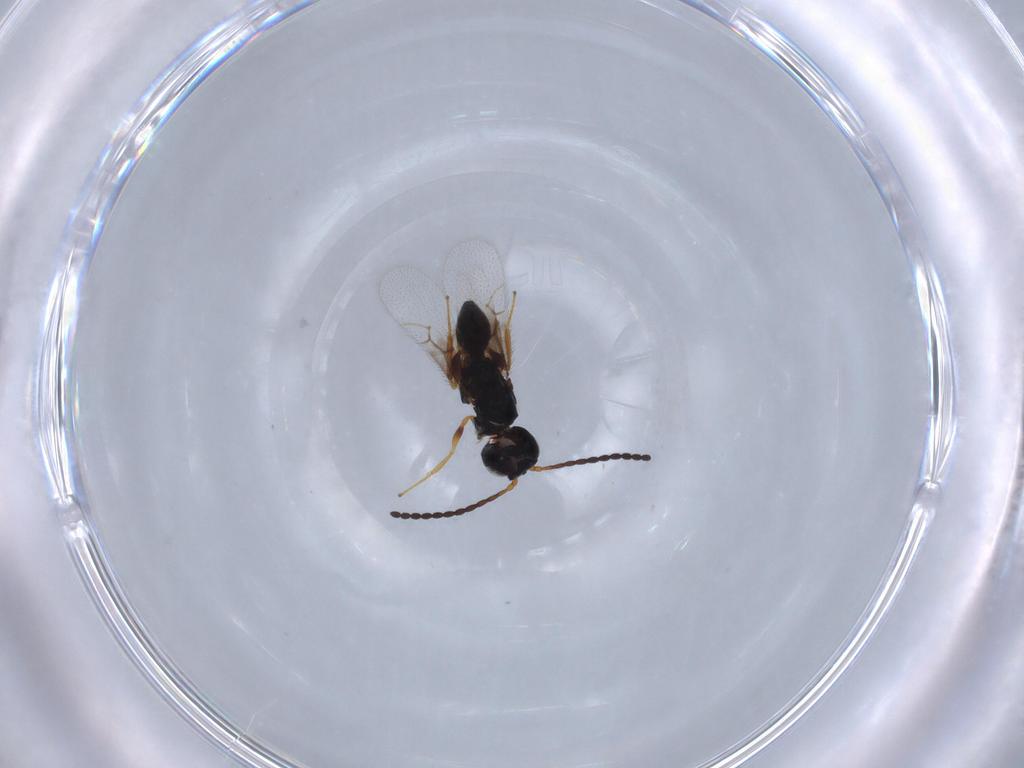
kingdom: Animalia
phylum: Arthropoda
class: Insecta
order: Hymenoptera
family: Figitidae
